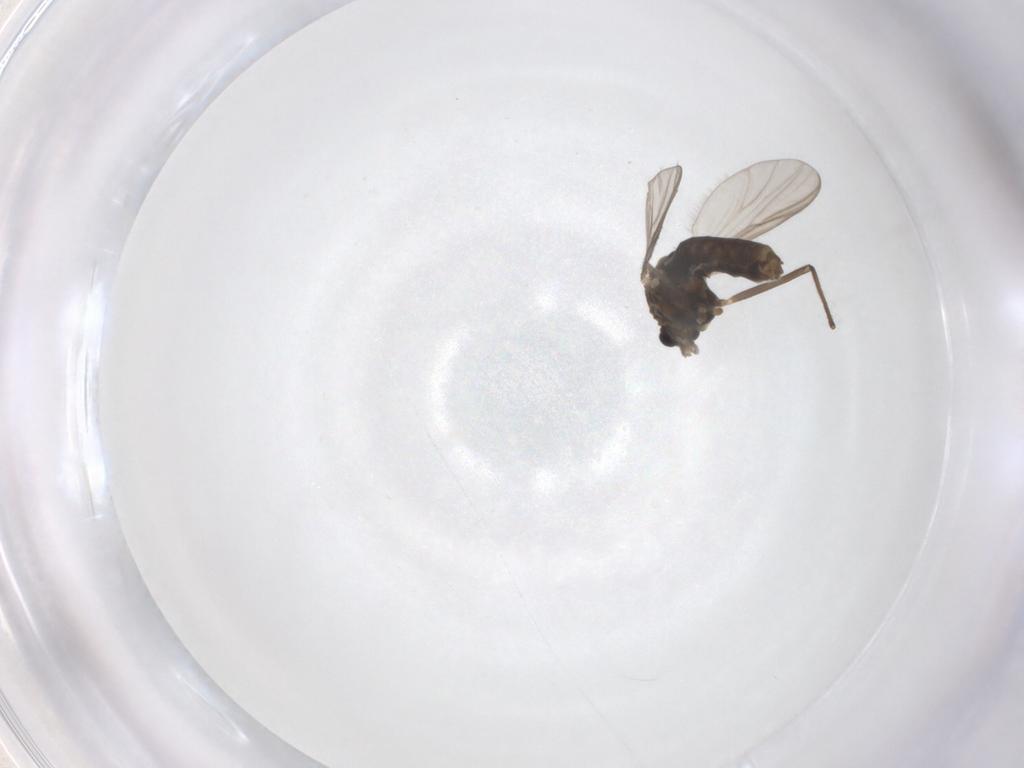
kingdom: Animalia
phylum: Arthropoda
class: Insecta
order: Diptera
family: Chironomidae
